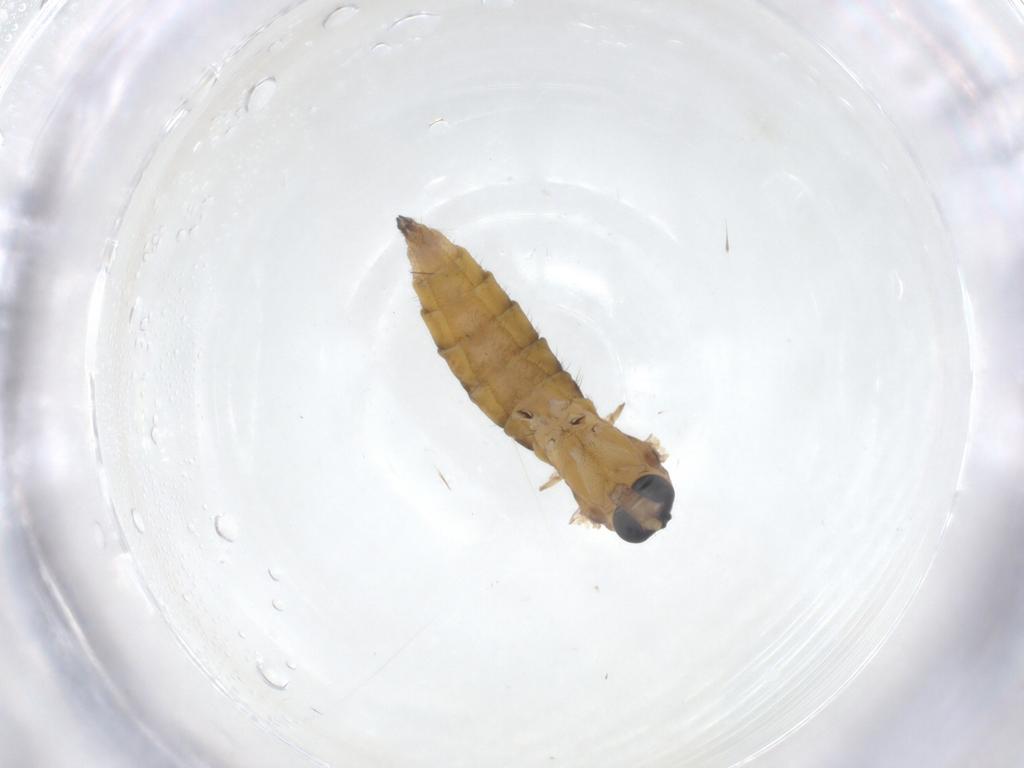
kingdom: Animalia
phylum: Arthropoda
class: Insecta
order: Diptera
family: Sciaridae
